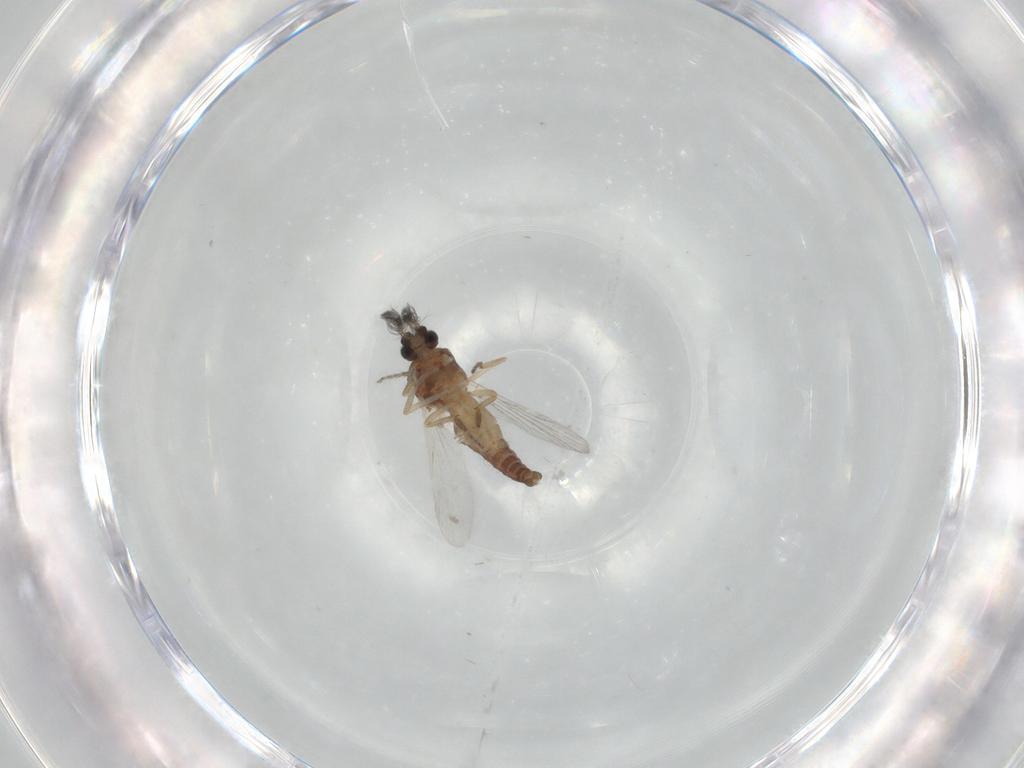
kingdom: Animalia
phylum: Arthropoda
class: Insecta
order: Diptera
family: Ceratopogonidae
